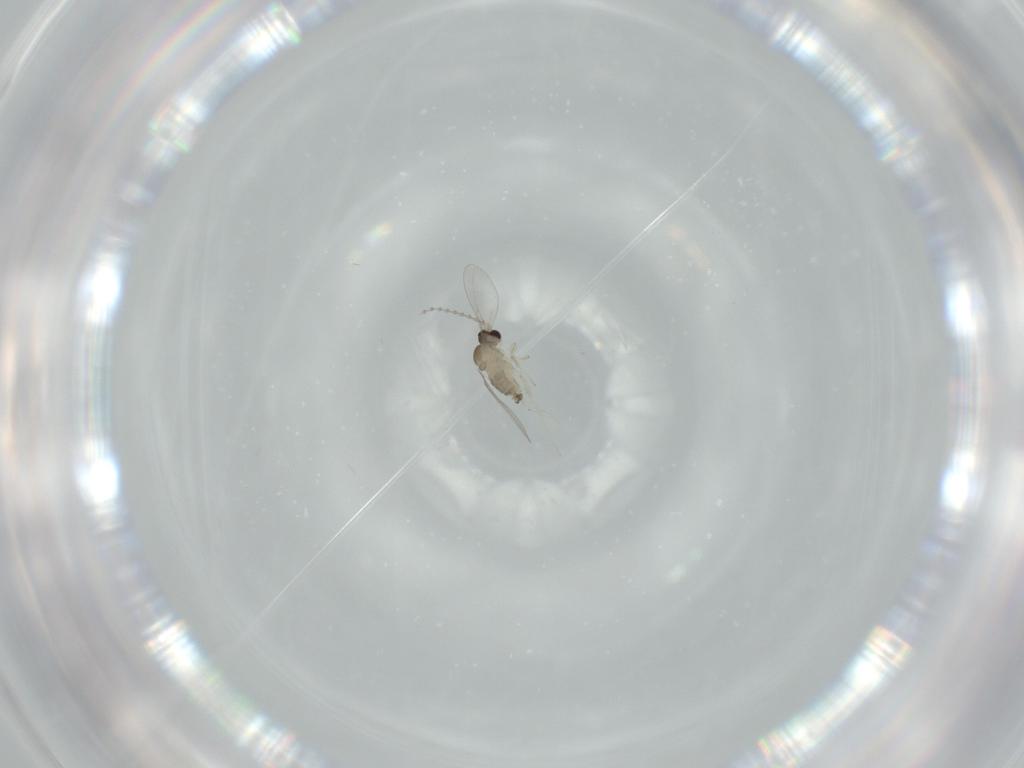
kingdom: Animalia
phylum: Arthropoda
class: Insecta
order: Diptera
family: Cecidomyiidae
